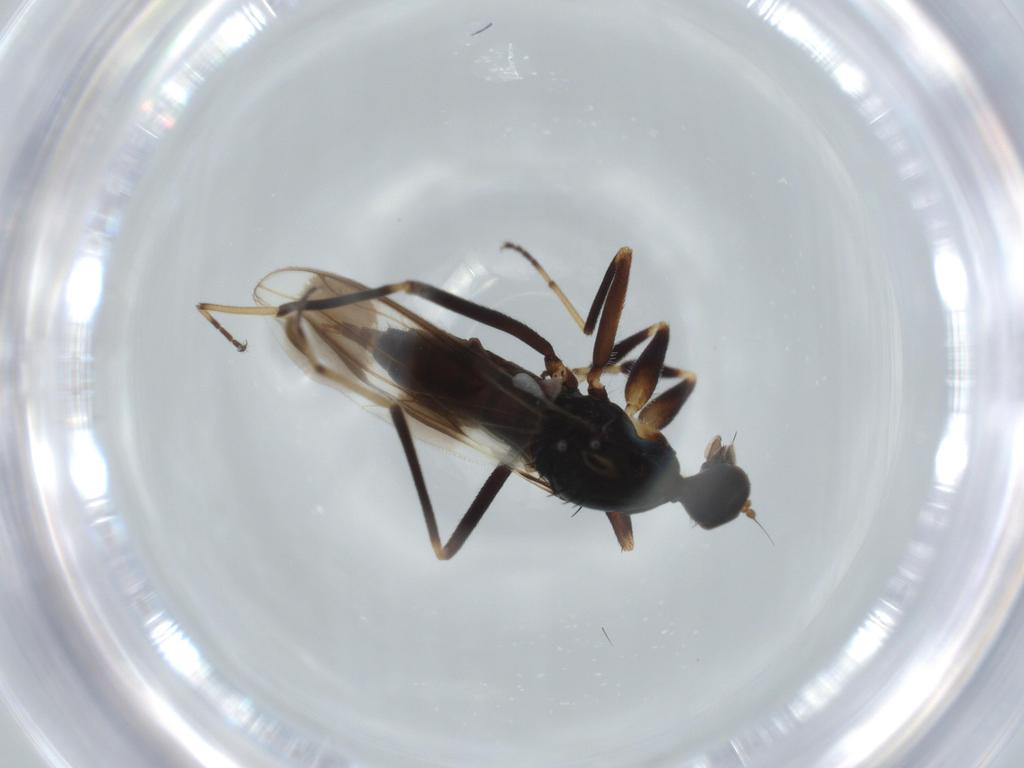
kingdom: Animalia
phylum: Arthropoda
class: Insecta
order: Diptera
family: Hybotidae
